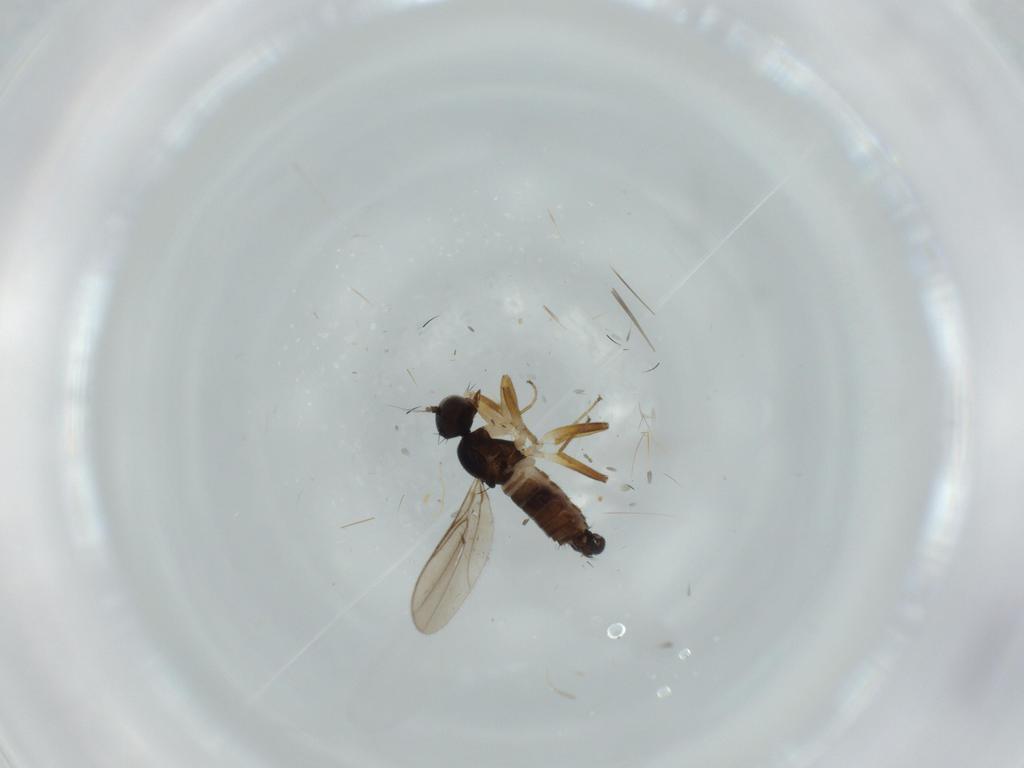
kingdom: Animalia
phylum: Arthropoda
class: Insecta
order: Diptera
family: Hybotidae
